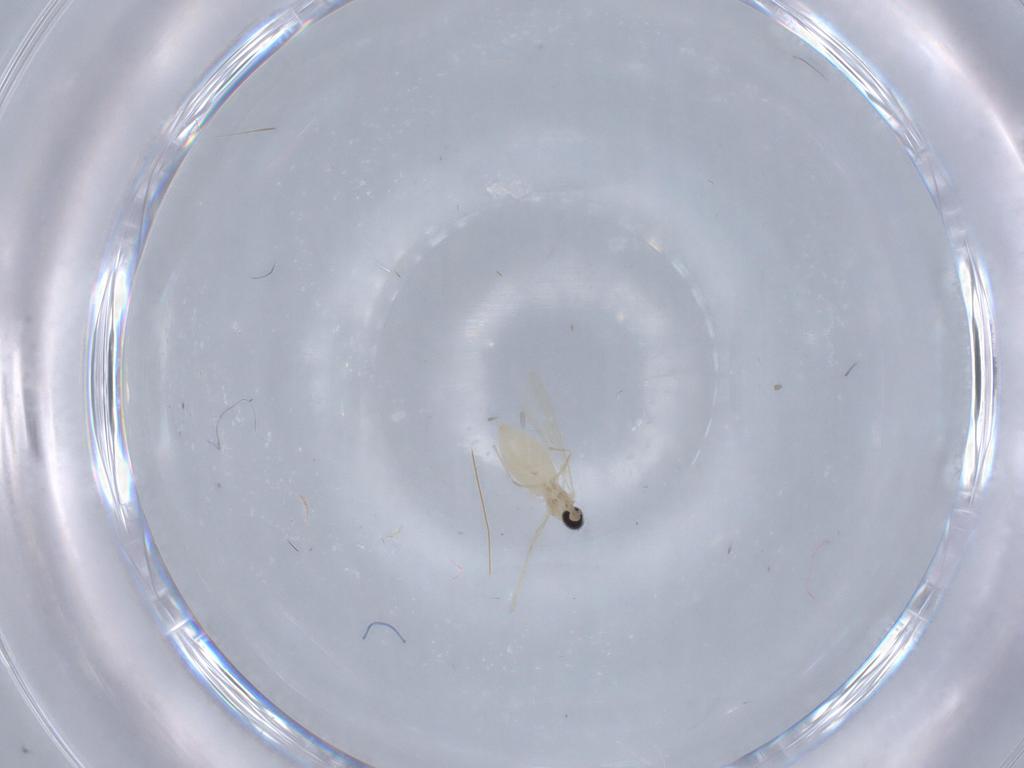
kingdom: Animalia
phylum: Arthropoda
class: Insecta
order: Diptera
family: Cecidomyiidae
